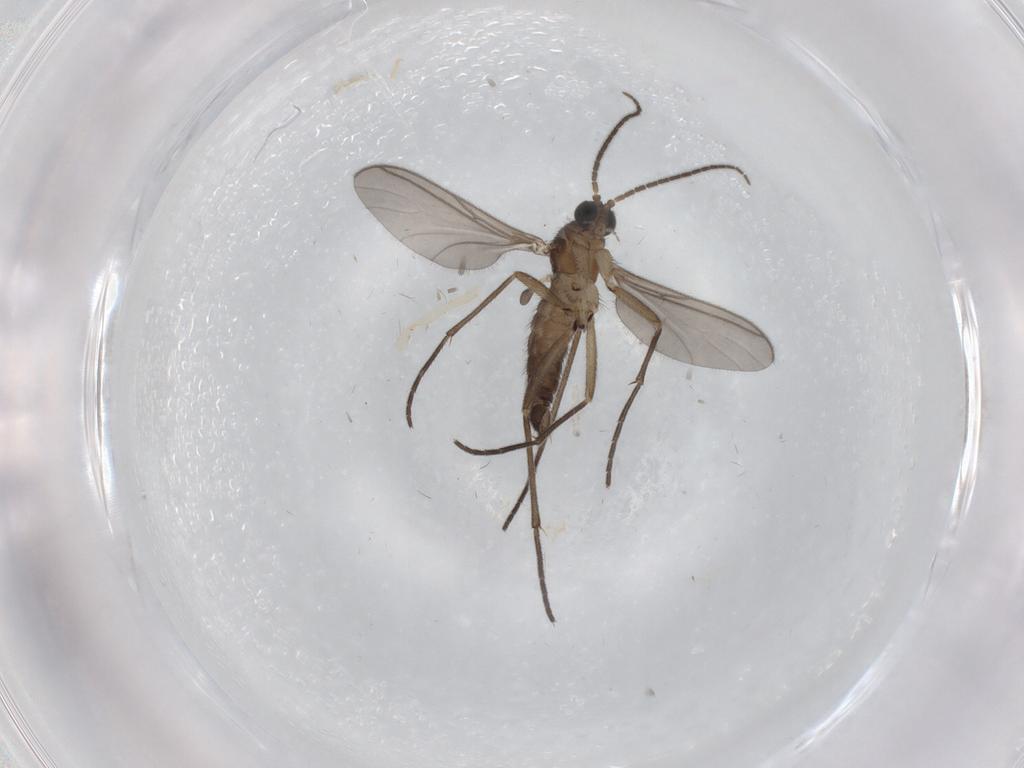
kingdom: Animalia
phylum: Arthropoda
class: Insecta
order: Diptera
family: Sciaridae
